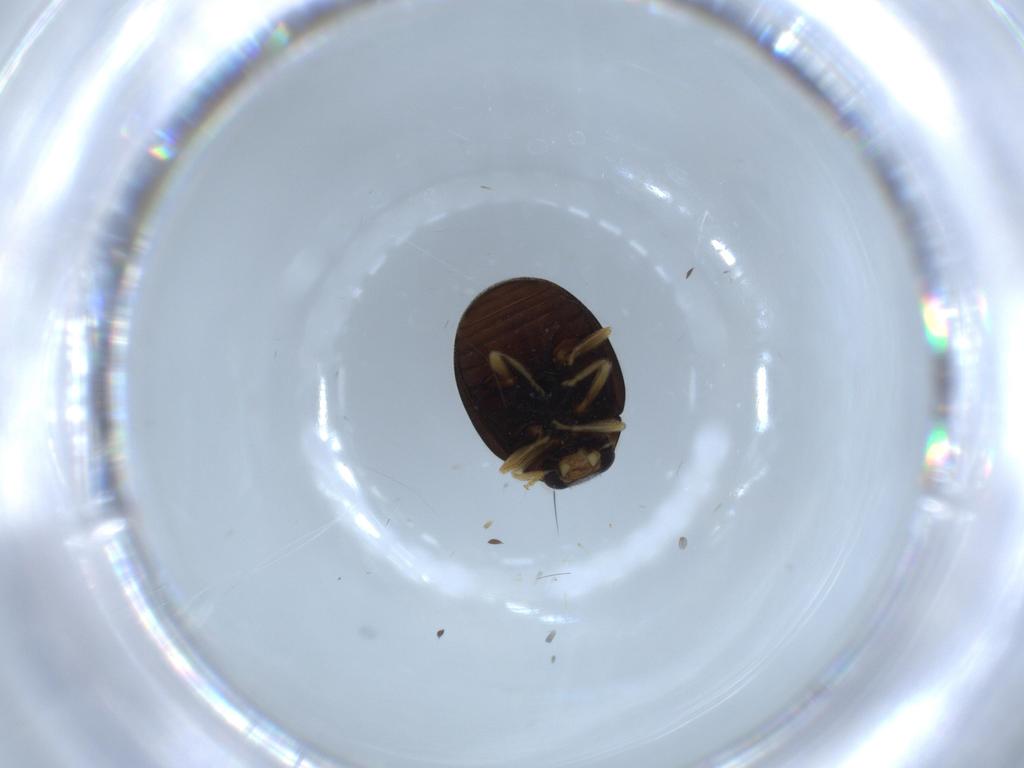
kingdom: Animalia
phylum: Arthropoda
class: Insecta
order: Coleoptera
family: Coccinellidae
